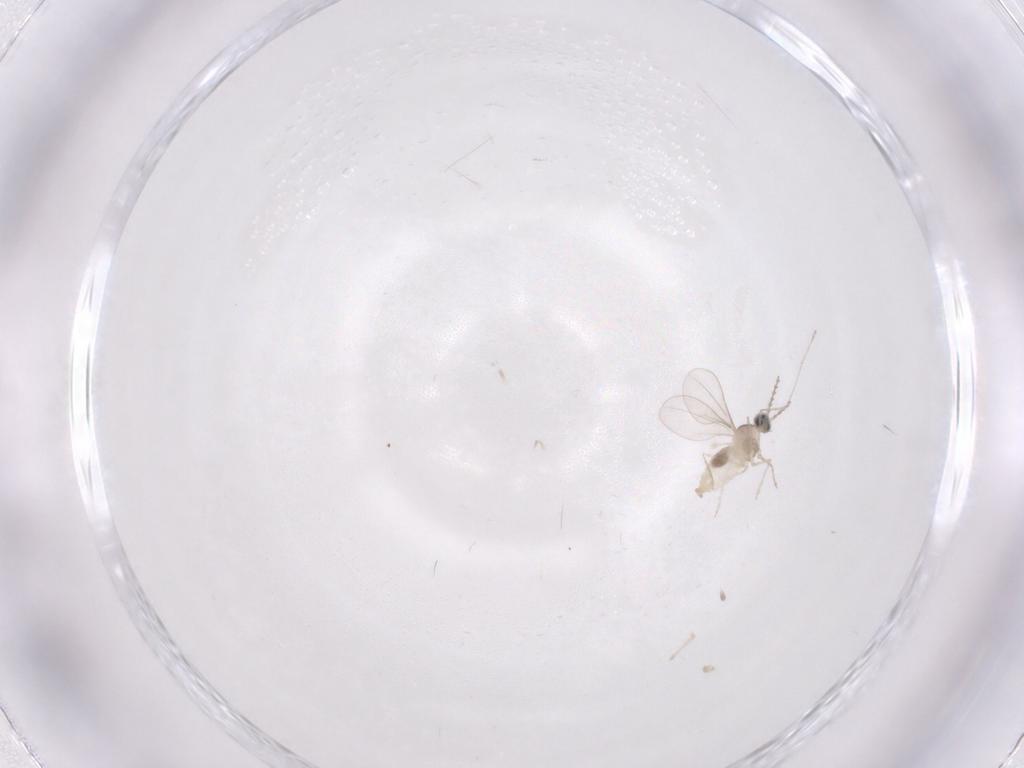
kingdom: Animalia
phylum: Arthropoda
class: Insecta
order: Diptera
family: Cecidomyiidae
